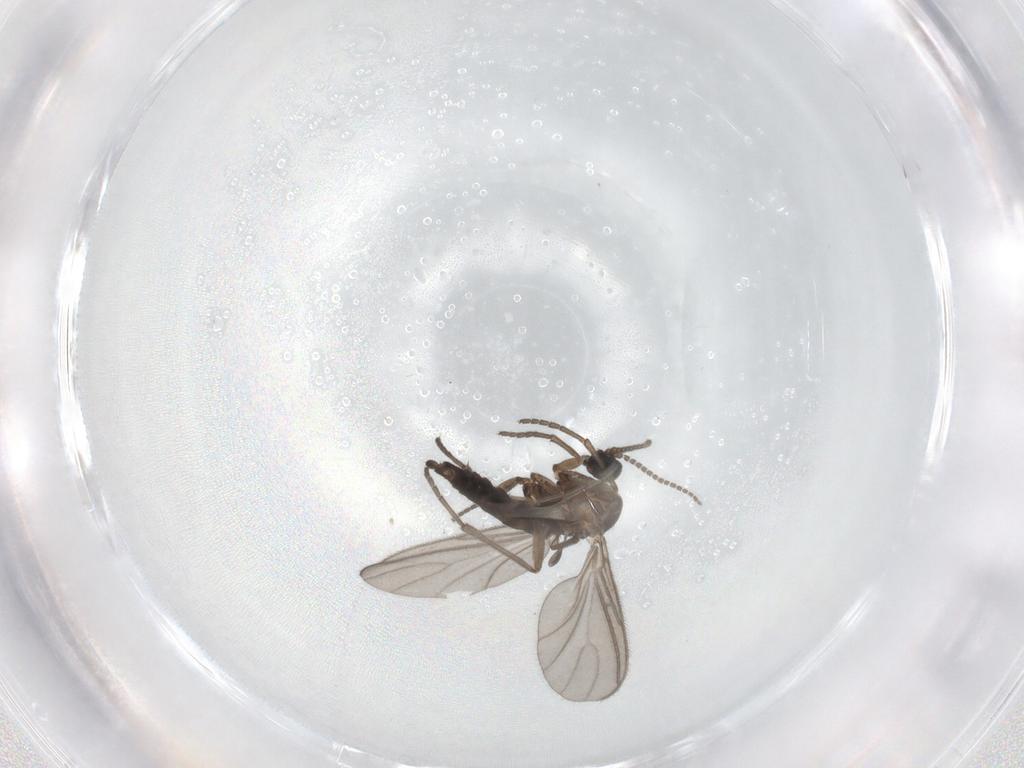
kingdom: Animalia
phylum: Arthropoda
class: Insecta
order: Diptera
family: Sciaridae
